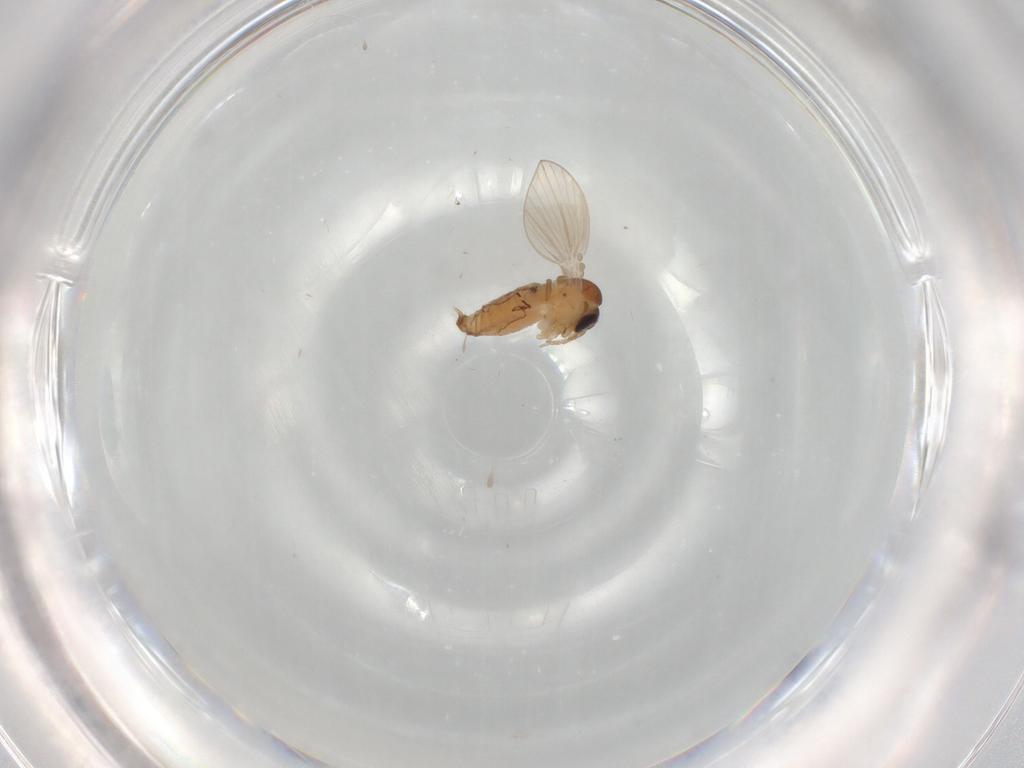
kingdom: Animalia
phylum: Arthropoda
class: Insecta
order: Diptera
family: Psychodidae
